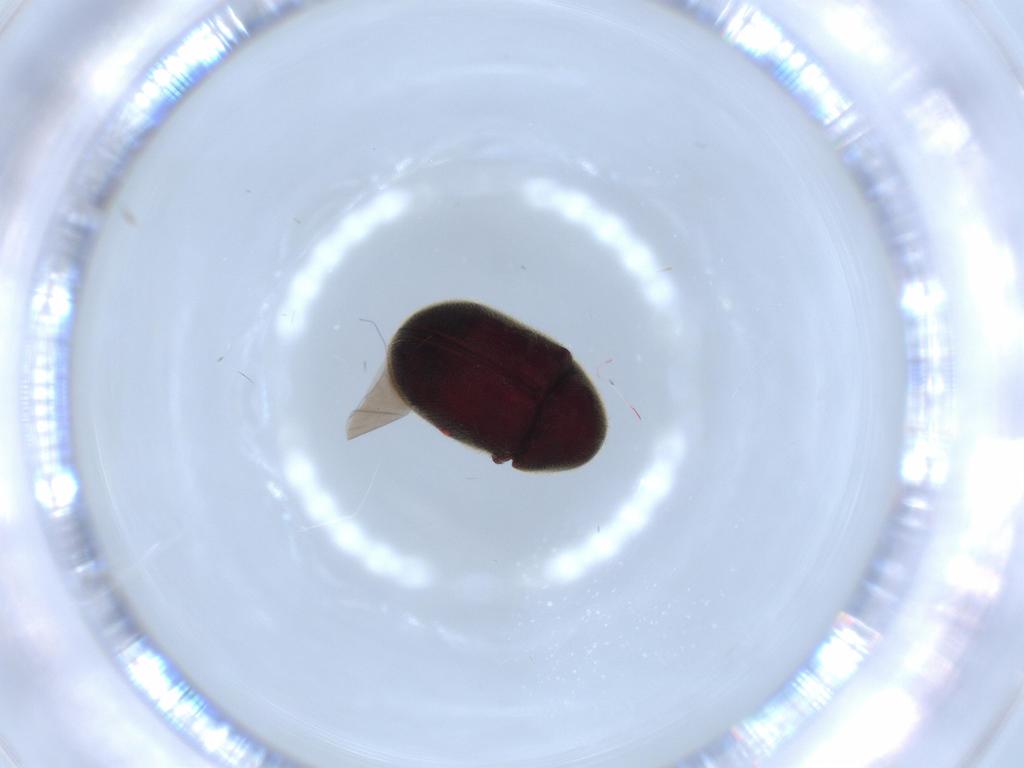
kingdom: Animalia
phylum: Arthropoda
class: Insecta
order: Coleoptera
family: Ptinidae
